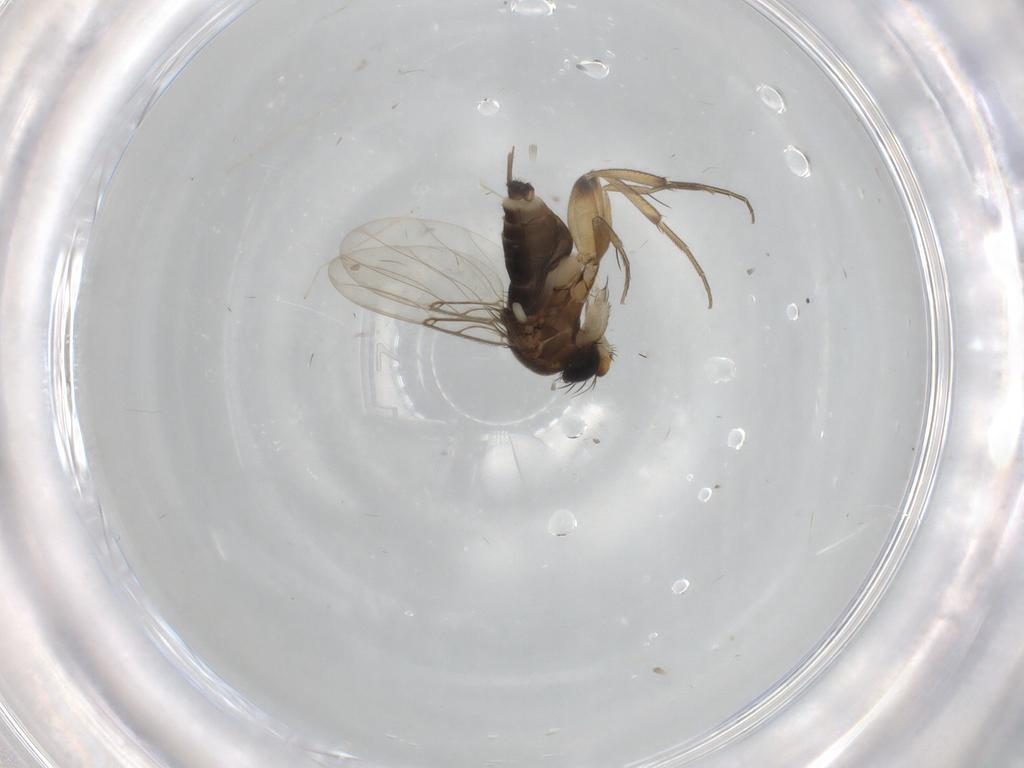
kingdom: Animalia
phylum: Arthropoda
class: Insecta
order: Diptera
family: Phoridae
